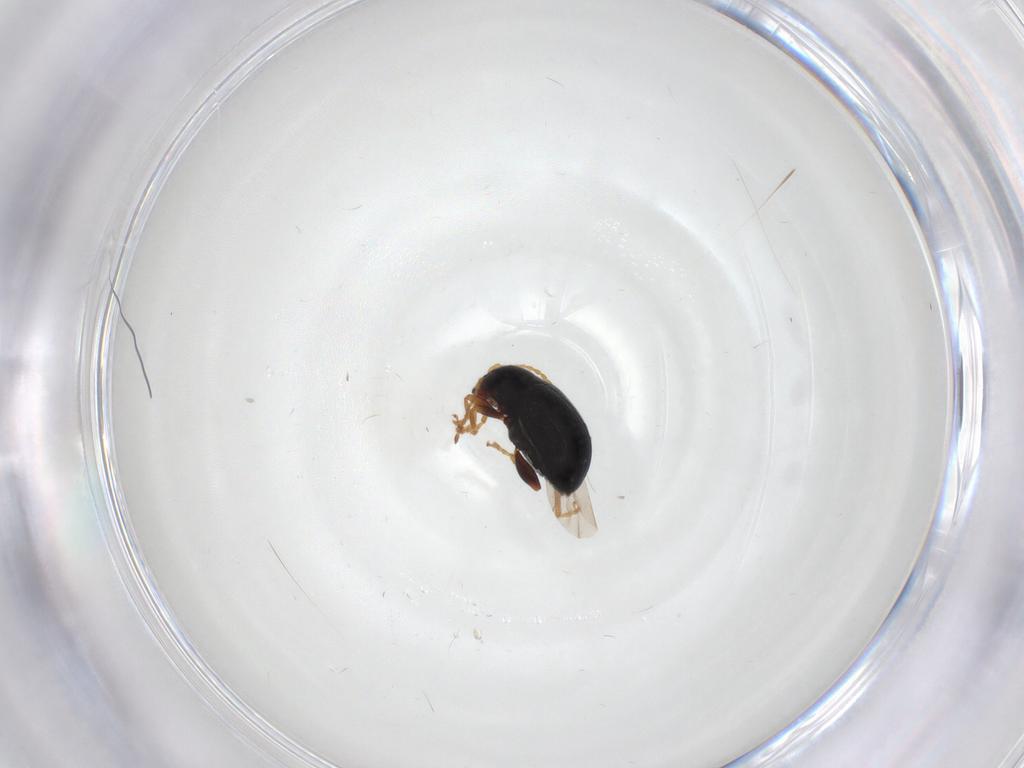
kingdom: Animalia
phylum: Arthropoda
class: Insecta
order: Coleoptera
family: Chrysomelidae
